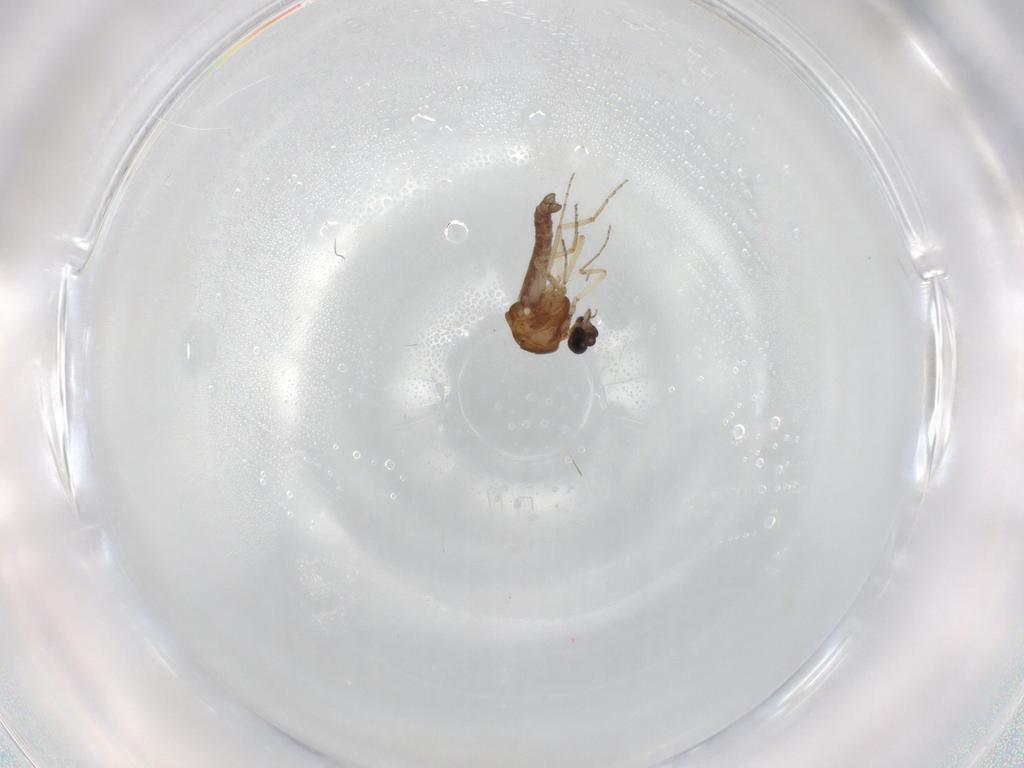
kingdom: Animalia
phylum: Arthropoda
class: Insecta
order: Diptera
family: Ceratopogonidae
